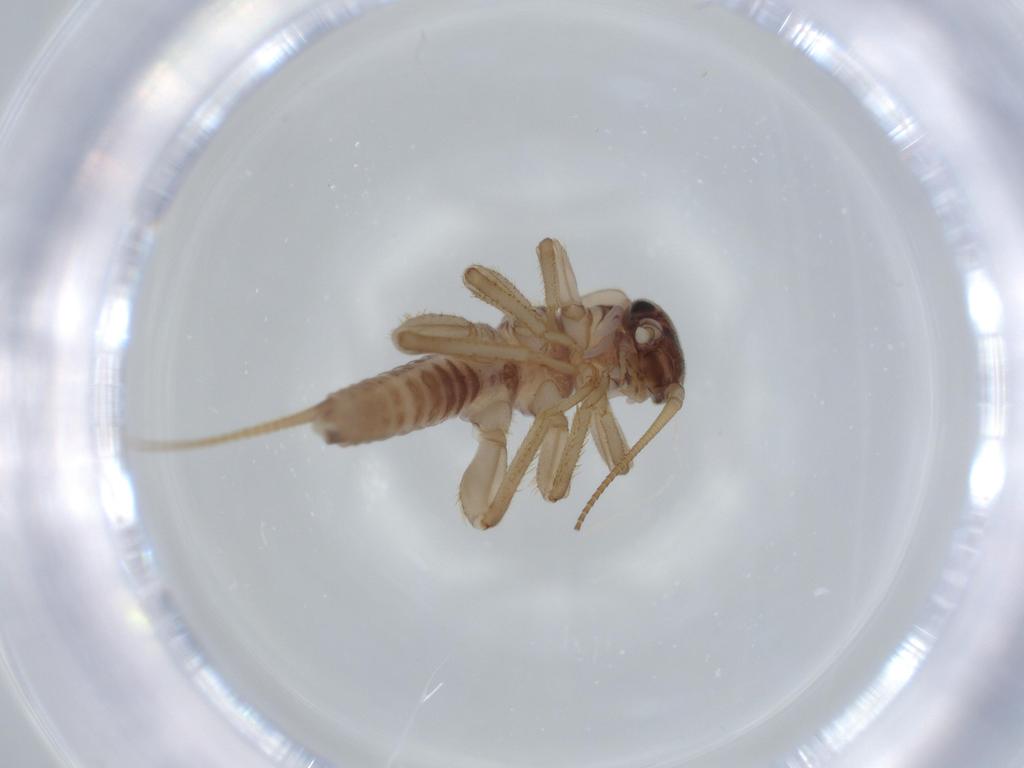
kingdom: Animalia
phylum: Arthropoda
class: Insecta
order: Plecoptera
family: Nemouridae
